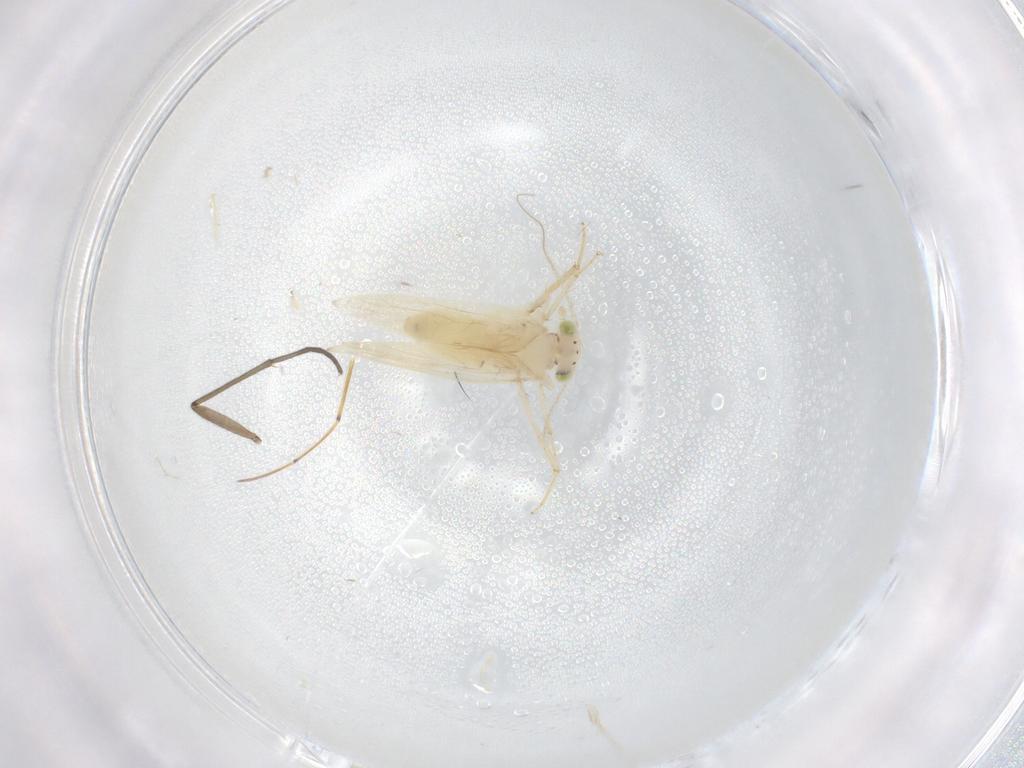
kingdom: Animalia
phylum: Arthropoda
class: Insecta
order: Psocodea
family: Lepidopsocidae
